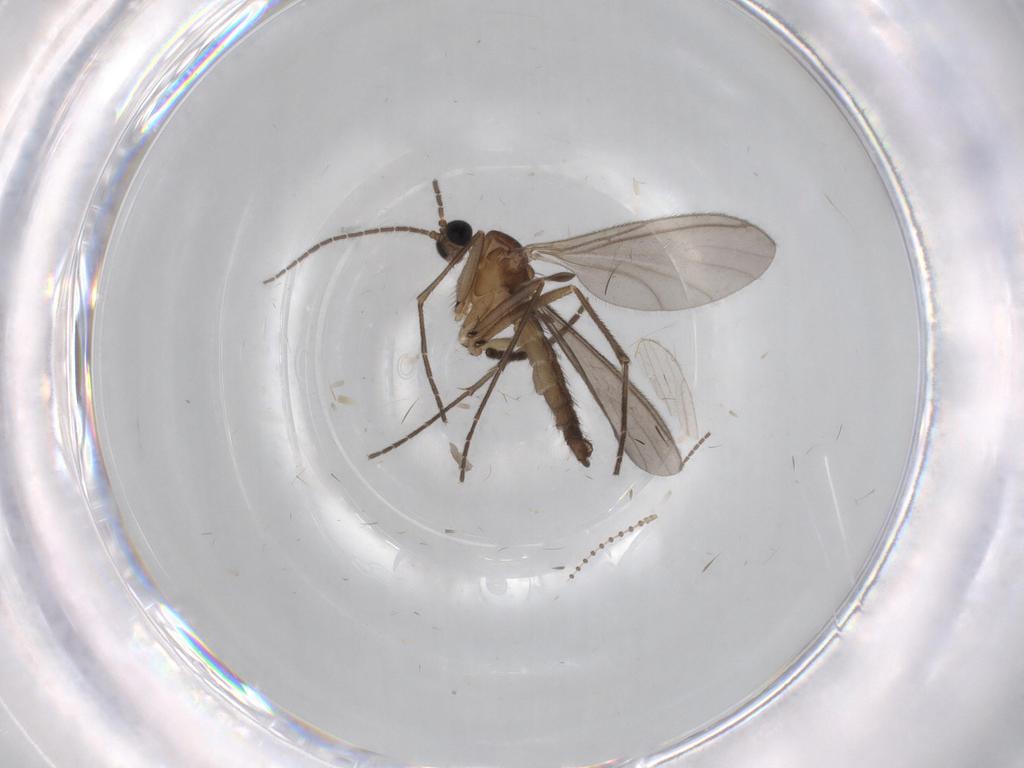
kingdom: Animalia
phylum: Arthropoda
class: Insecta
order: Diptera
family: Sciaridae
